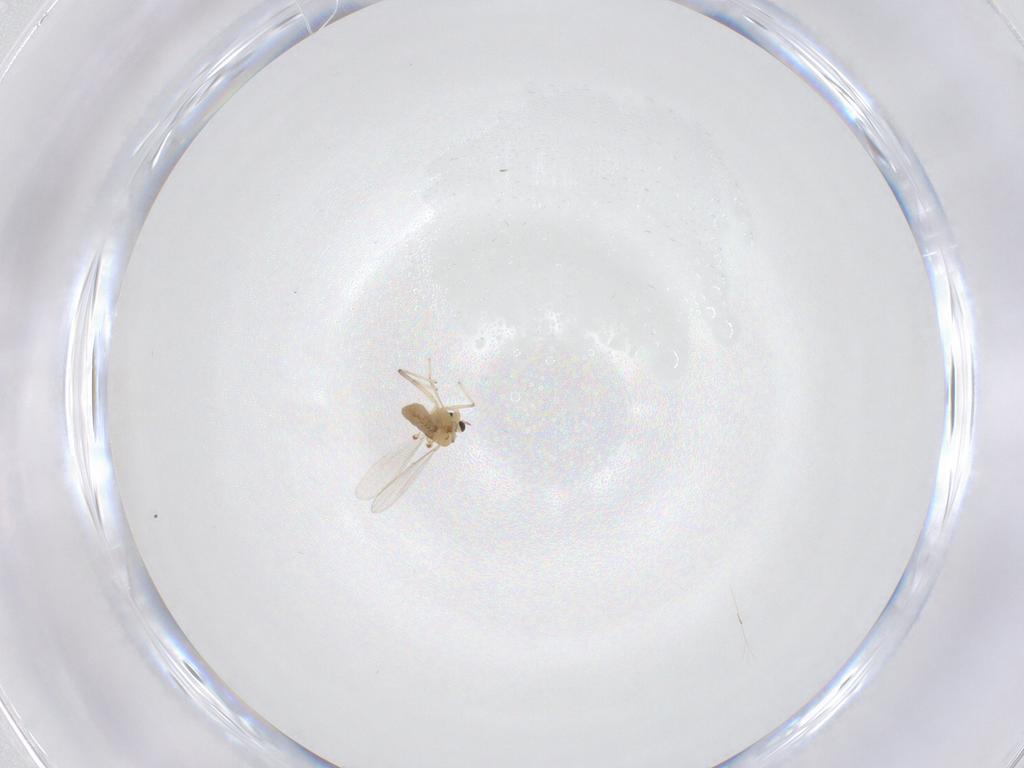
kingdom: Animalia
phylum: Arthropoda
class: Insecta
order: Diptera
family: Chironomidae
